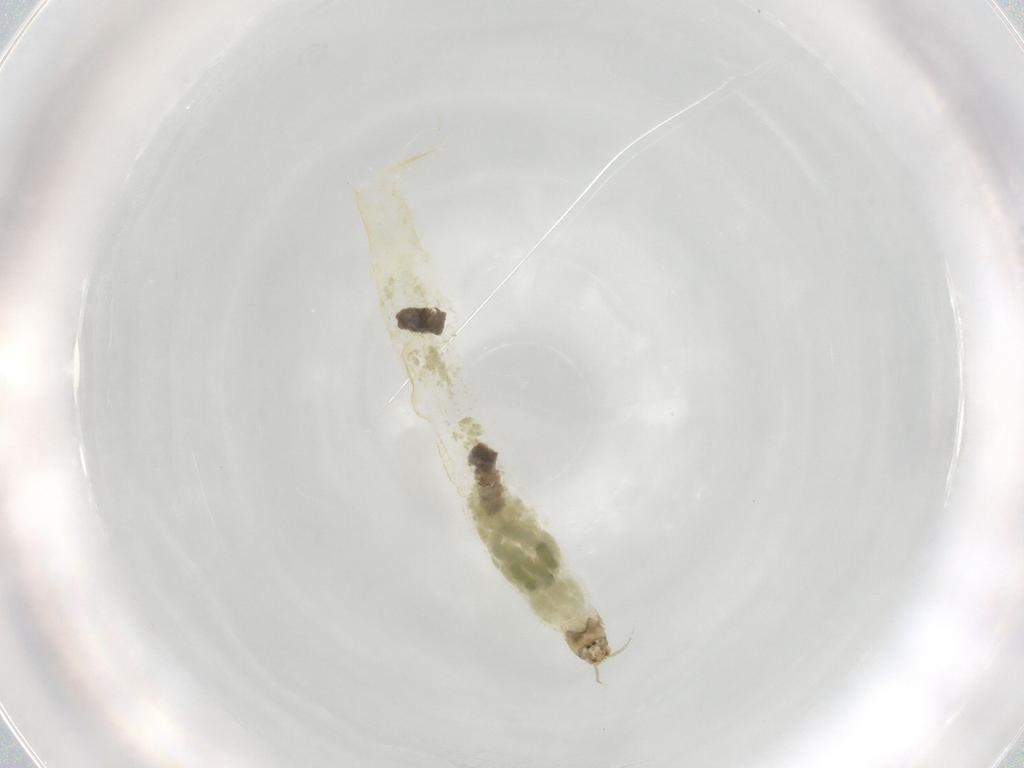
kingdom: Animalia
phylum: Arthropoda
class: Insecta
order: Diptera
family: Chironomidae
